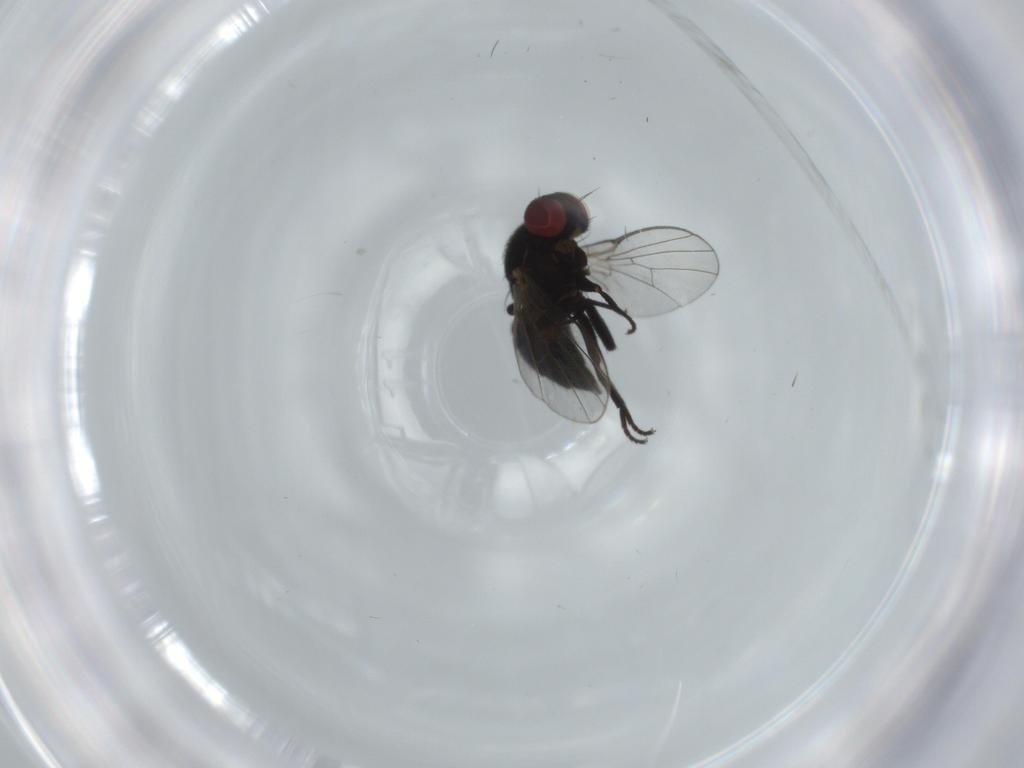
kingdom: Animalia
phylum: Arthropoda
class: Insecta
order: Diptera
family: Agromyzidae
